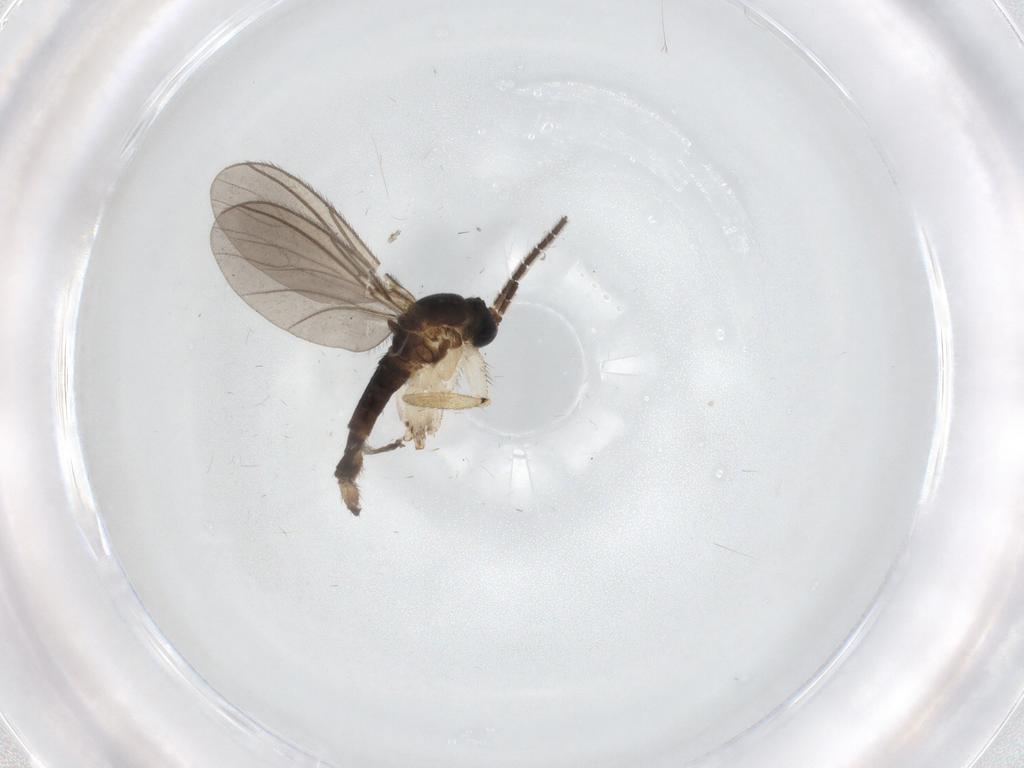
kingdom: Animalia
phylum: Arthropoda
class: Insecta
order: Diptera
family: Sciaridae
